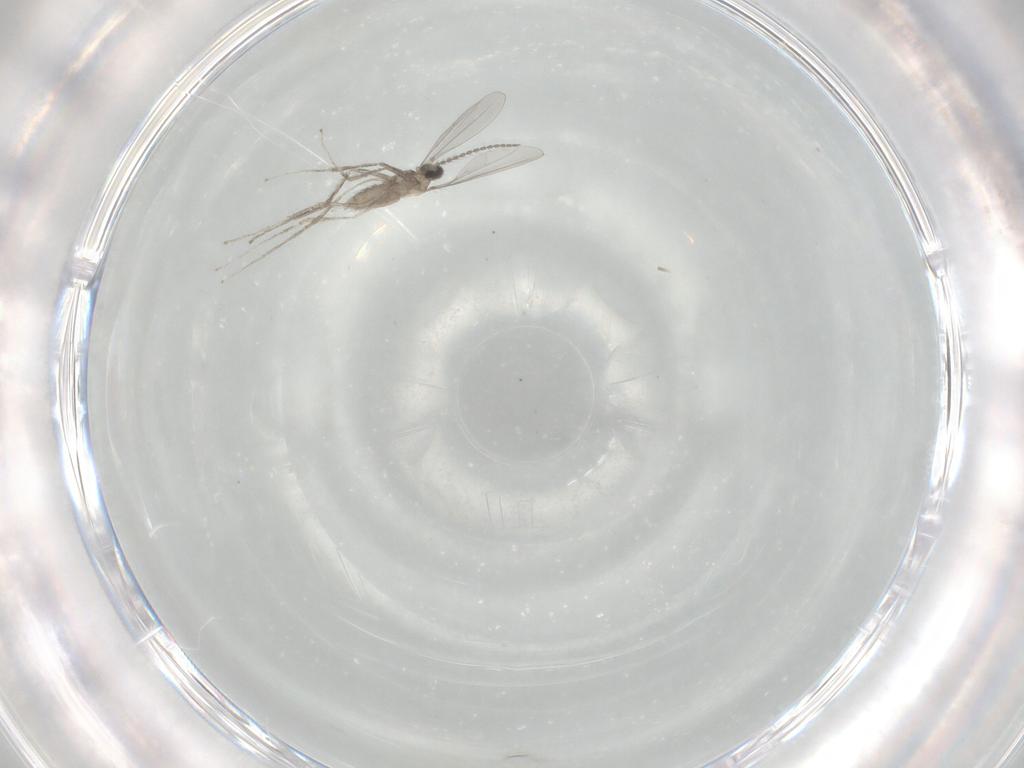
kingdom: Animalia
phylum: Arthropoda
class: Insecta
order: Diptera
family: Cecidomyiidae
